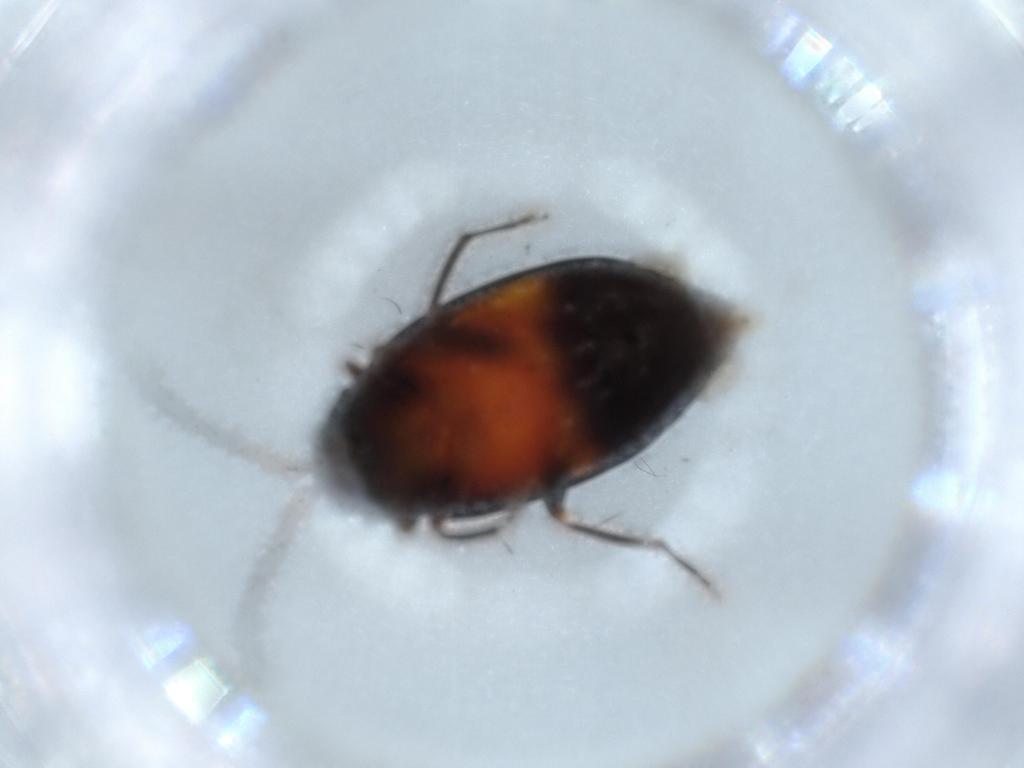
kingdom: Animalia
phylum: Arthropoda
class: Insecta
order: Coleoptera
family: Chrysomelidae
